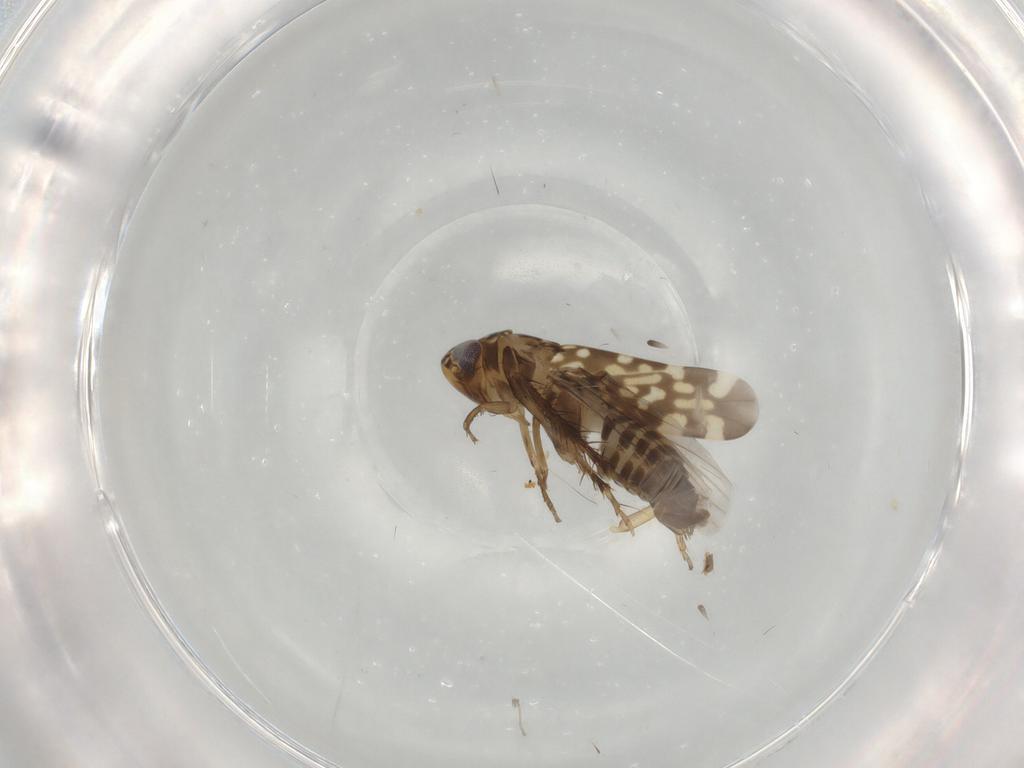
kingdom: Animalia
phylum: Arthropoda
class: Insecta
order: Hemiptera
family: Cicadellidae
